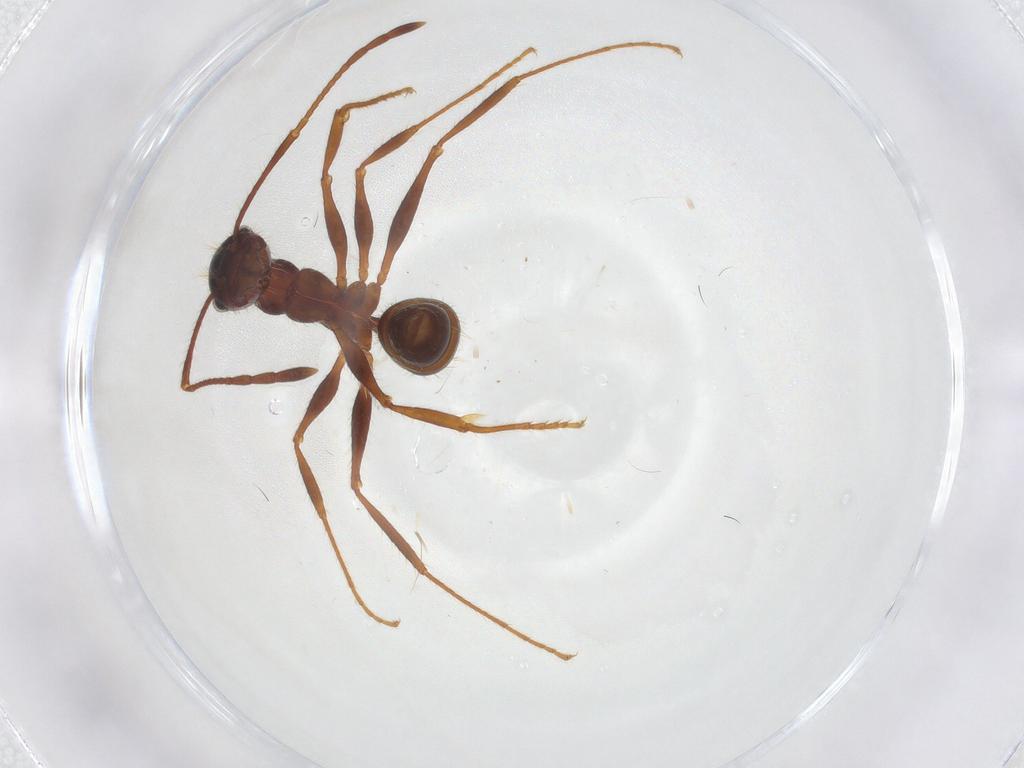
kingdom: Animalia
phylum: Arthropoda
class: Insecta
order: Hymenoptera
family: Formicidae
